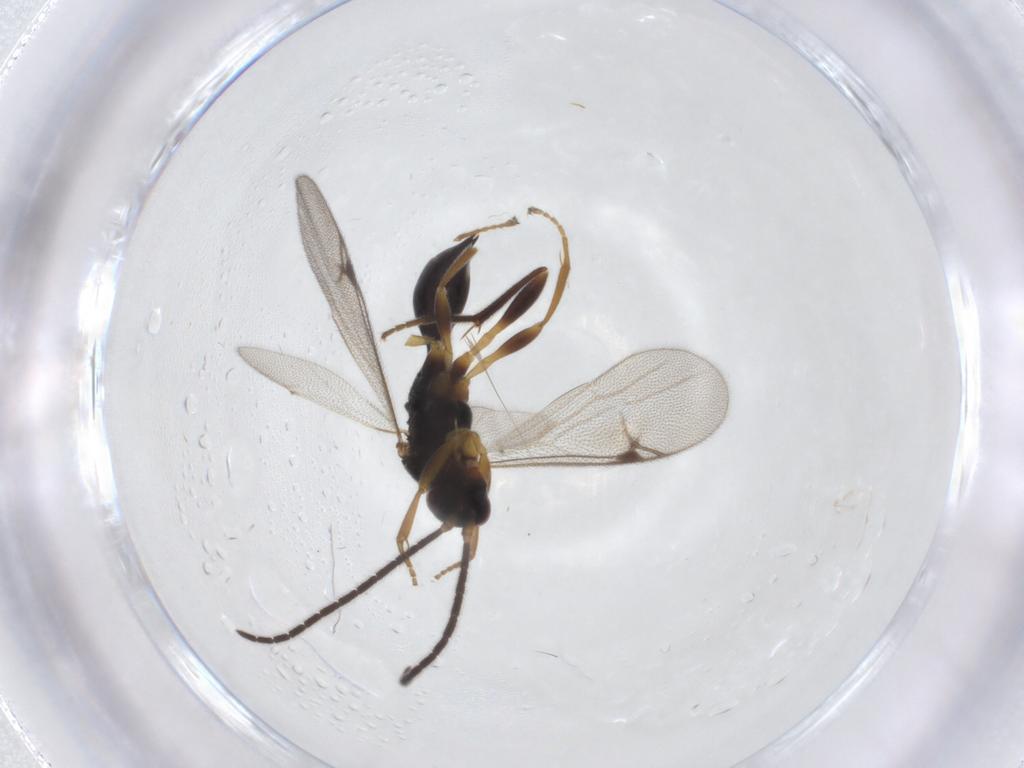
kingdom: Animalia
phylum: Arthropoda
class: Insecta
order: Hymenoptera
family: Proctotrupidae
